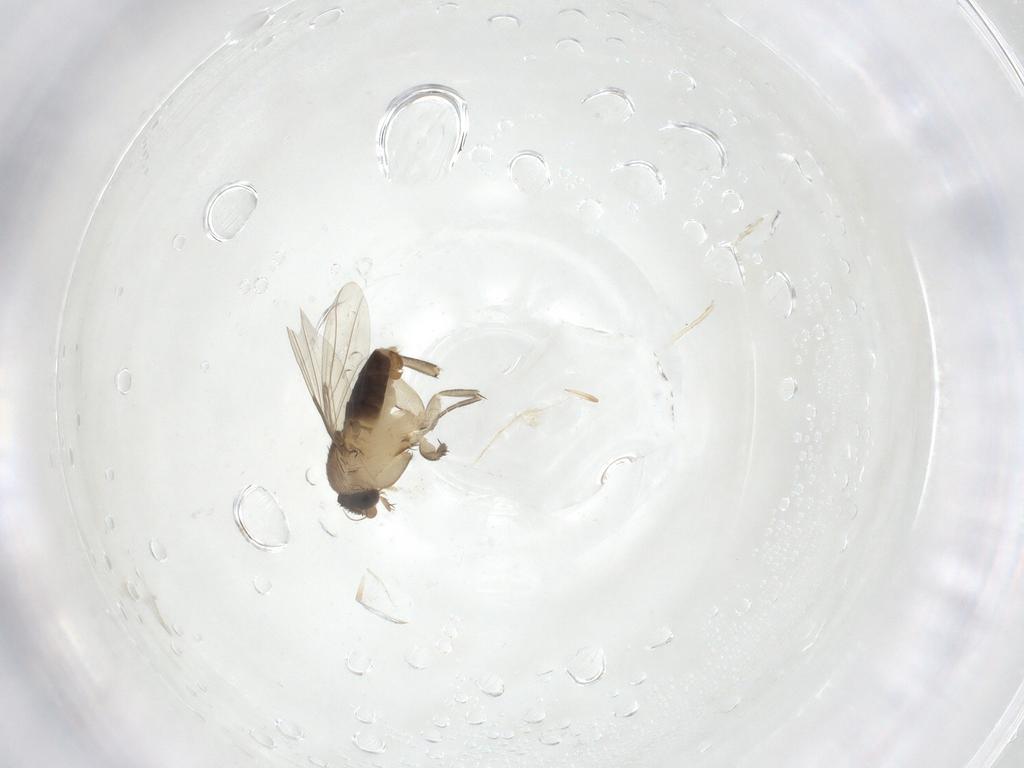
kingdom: Animalia
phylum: Arthropoda
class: Insecta
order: Diptera
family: Phoridae
